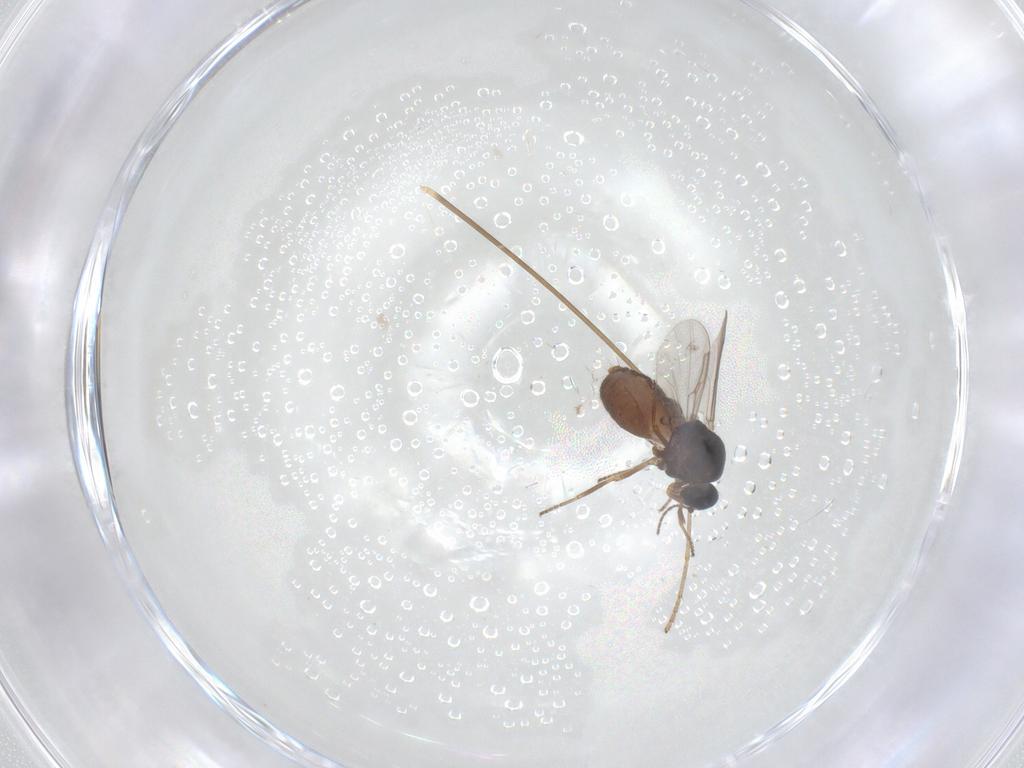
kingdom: Animalia
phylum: Arthropoda
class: Insecta
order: Diptera
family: Ceratopogonidae
